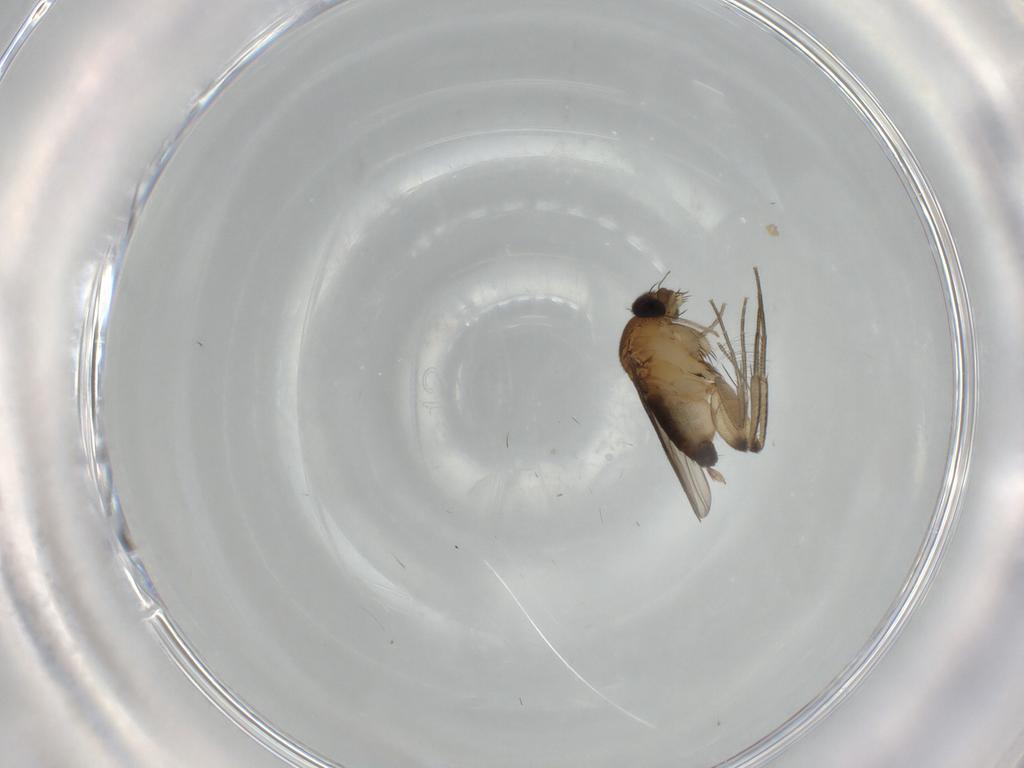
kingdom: Animalia
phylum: Arthropoda
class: Insecta
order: Diptera
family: Phoridae
